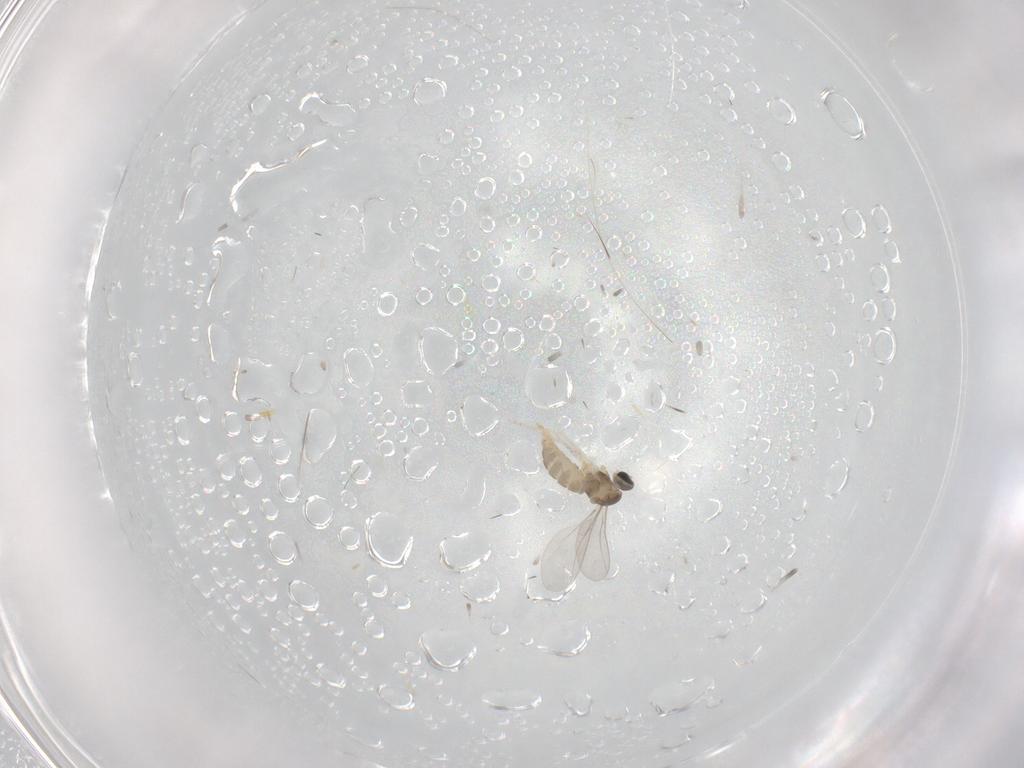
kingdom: Animalia
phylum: Arthropoda
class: Insecta
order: Diptera
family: Cecidomyiidae
